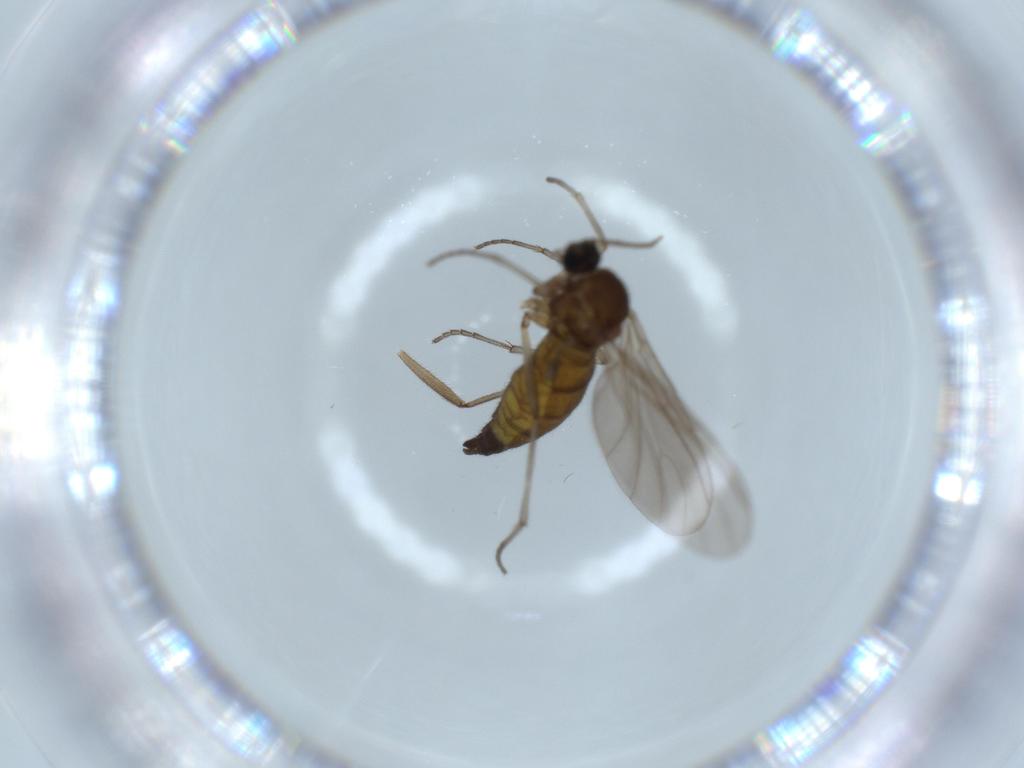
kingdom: Animalia
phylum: Arthropoda
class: Insecta
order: Diptera
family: Sciaridae
